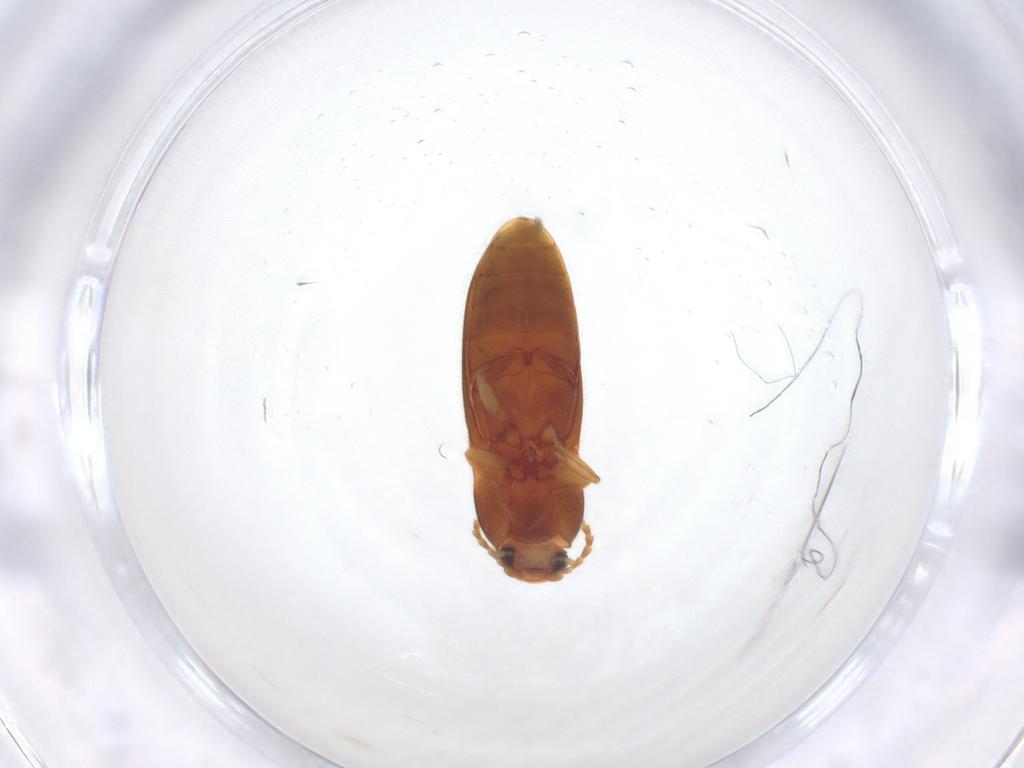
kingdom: Animalia
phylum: Arthropoda
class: Insecta
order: Coleoptera
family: Elateridae
